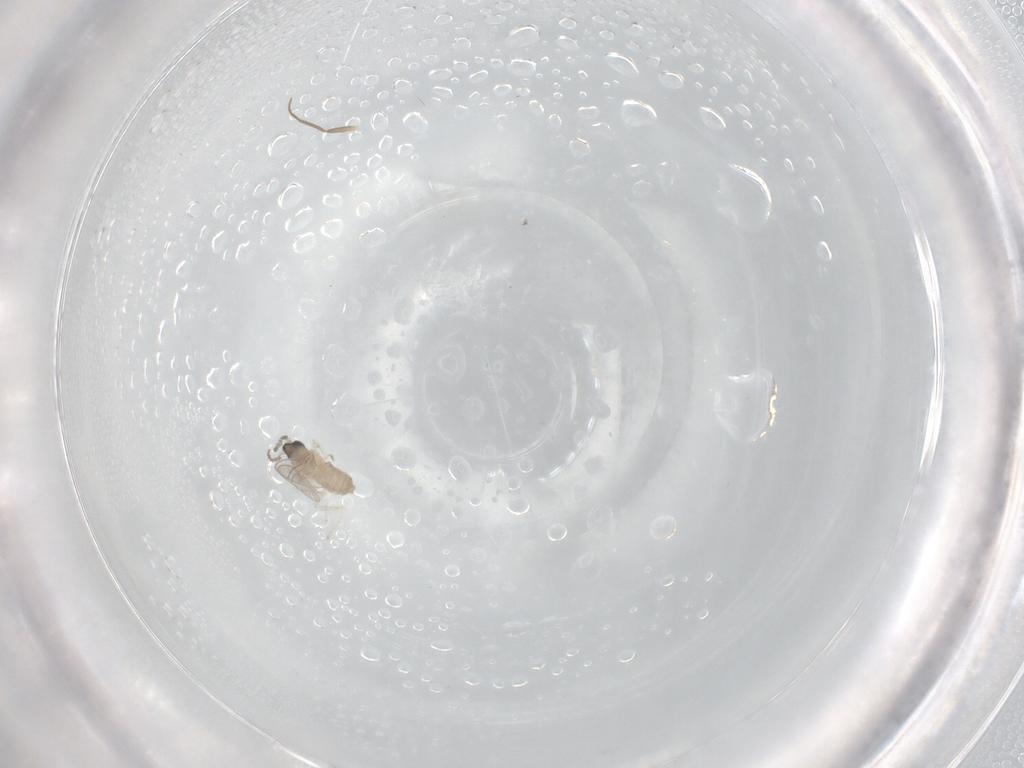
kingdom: Animalia
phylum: Arthropoda
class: Insecta
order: Diptera
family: Cecidomyiidae
